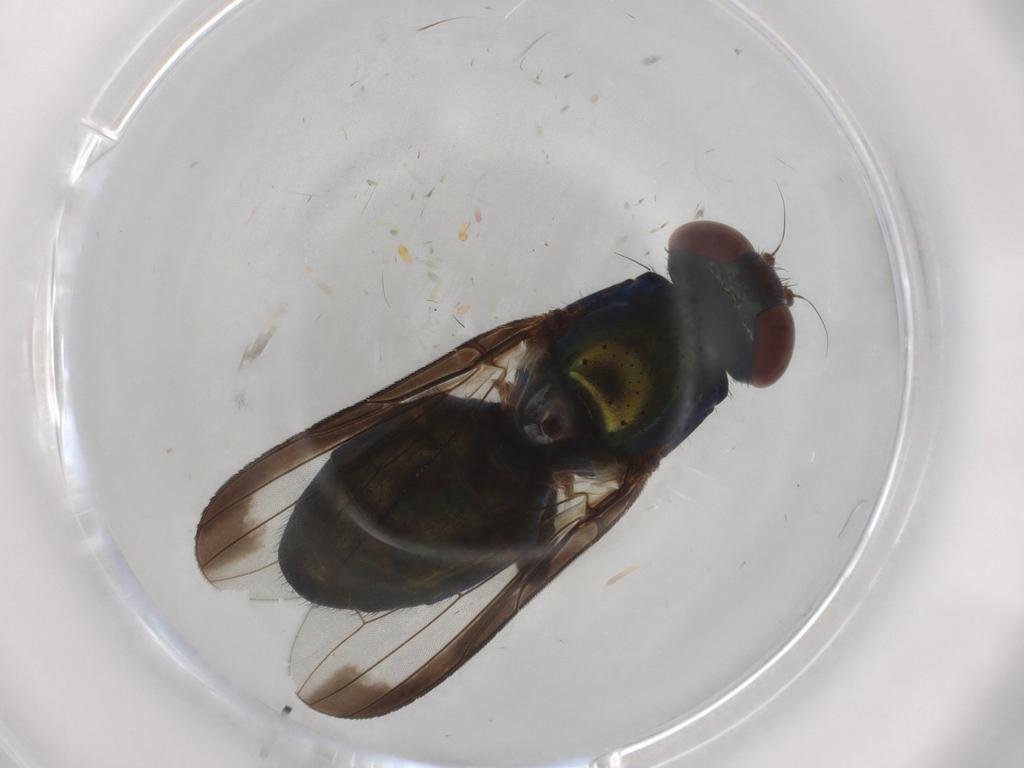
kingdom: Animalia
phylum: Arthropoda
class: Insecta
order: Diptera
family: Ulidiidae
